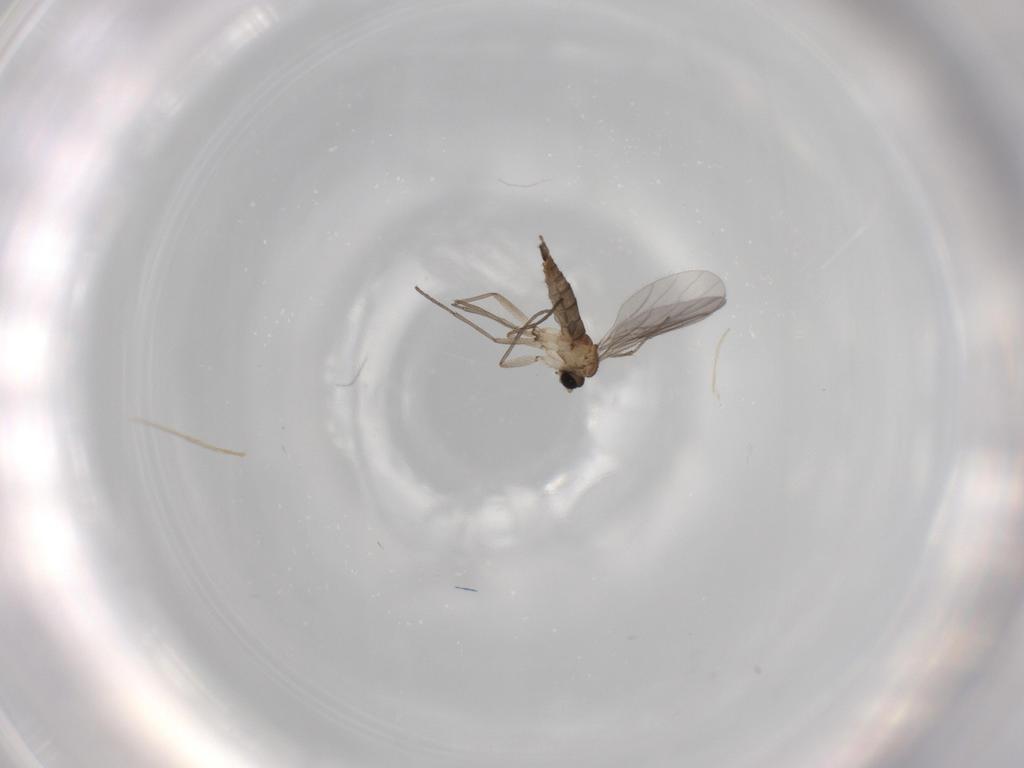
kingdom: Animalia
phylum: Arthropoda
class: Insecta
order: Diptera
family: Sciaridae
